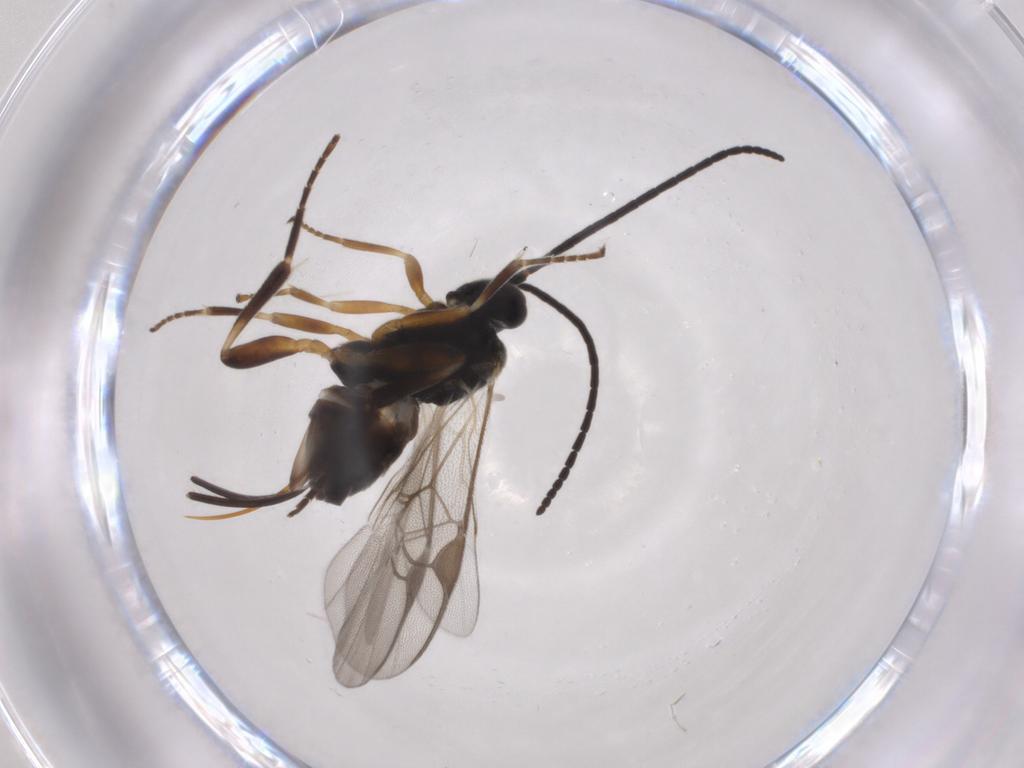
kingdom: Animalia
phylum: Arthropoda
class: Insecta
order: Hymenoptera
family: Braconidae
